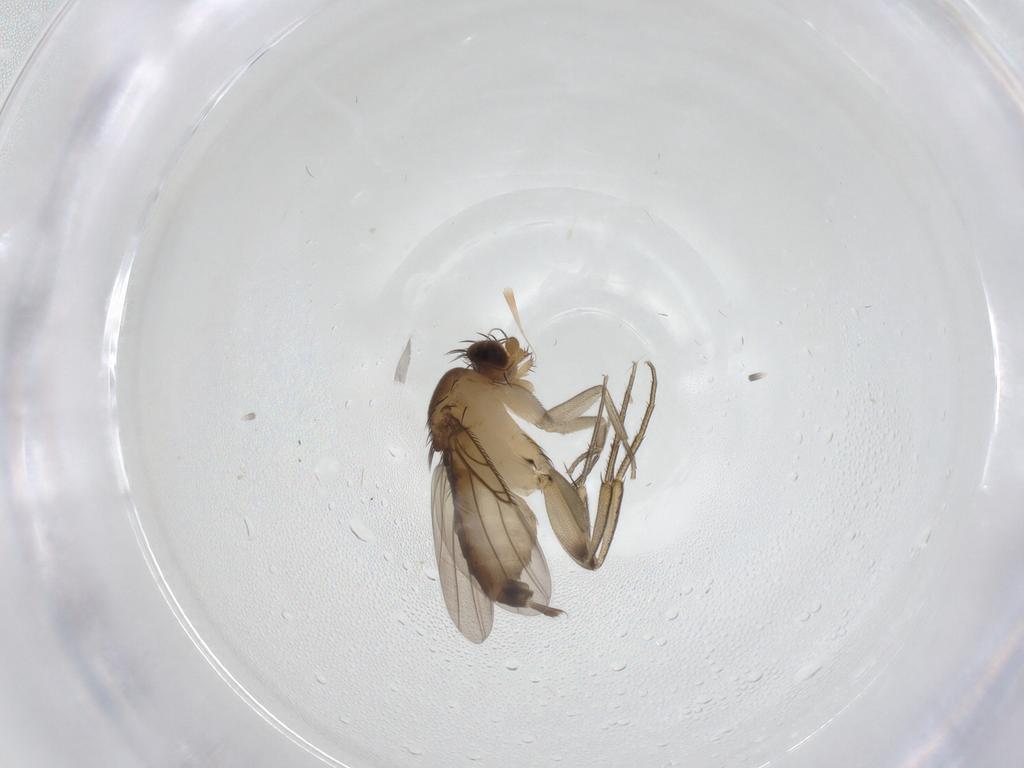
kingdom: Animalia
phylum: Arthropoda
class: Insecta
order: Diptera
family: Phoridae
